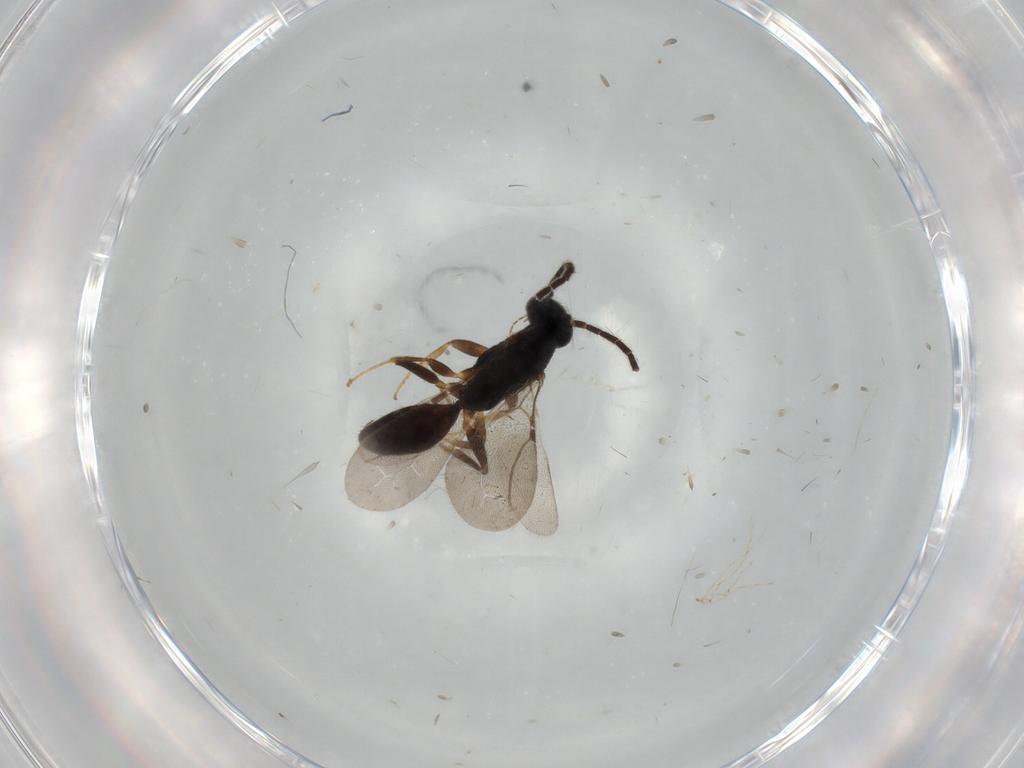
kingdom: Animalia
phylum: Arthropoda
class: Insecta
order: Hymenoptera
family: Bethylidae
